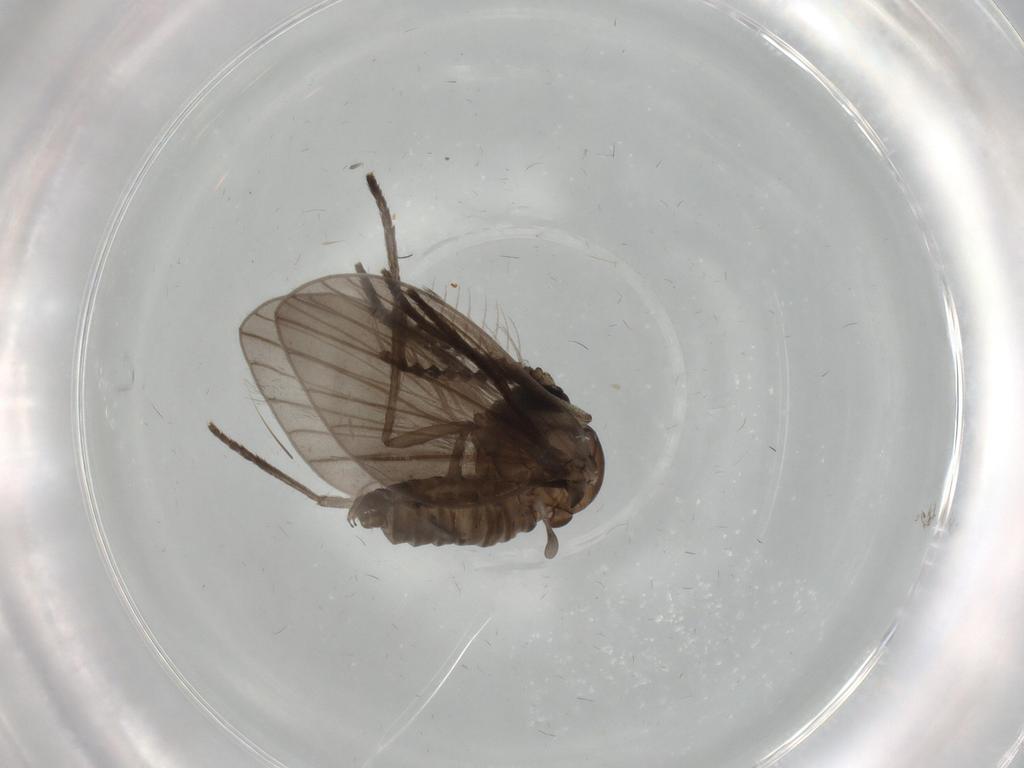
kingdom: Animalia
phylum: Arthropoda
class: Insecta
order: Diptera
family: Psychodidae
